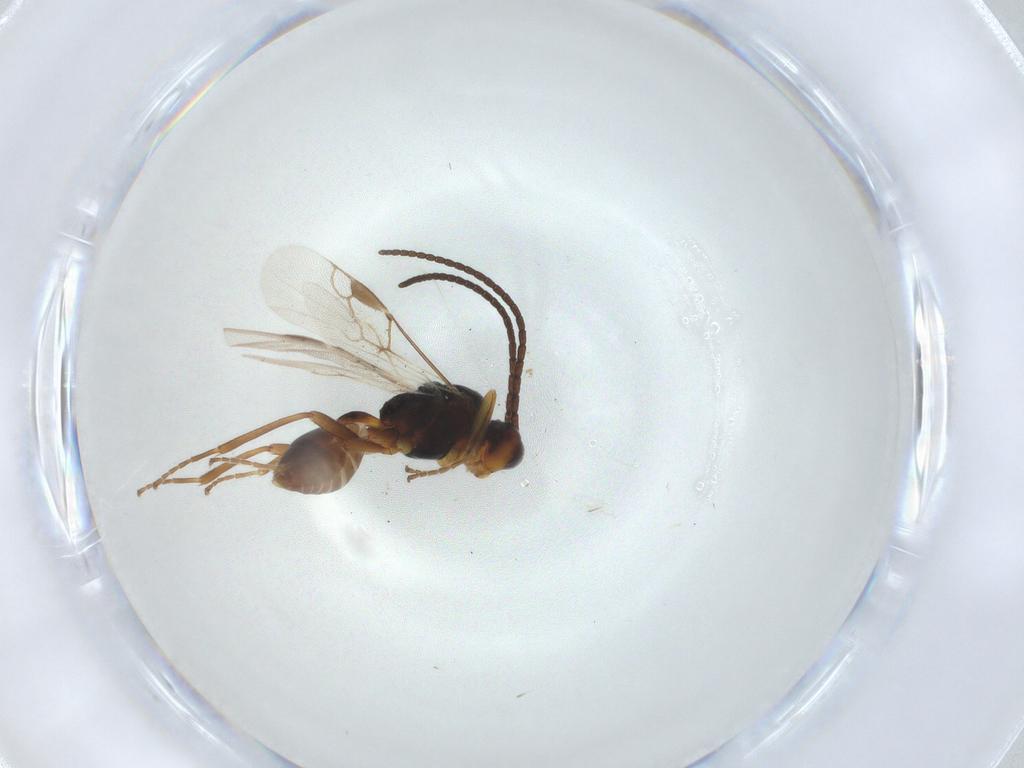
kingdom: Animalia
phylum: Arthropoda
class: Insecta
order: Hymenoptera
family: Braconidae
